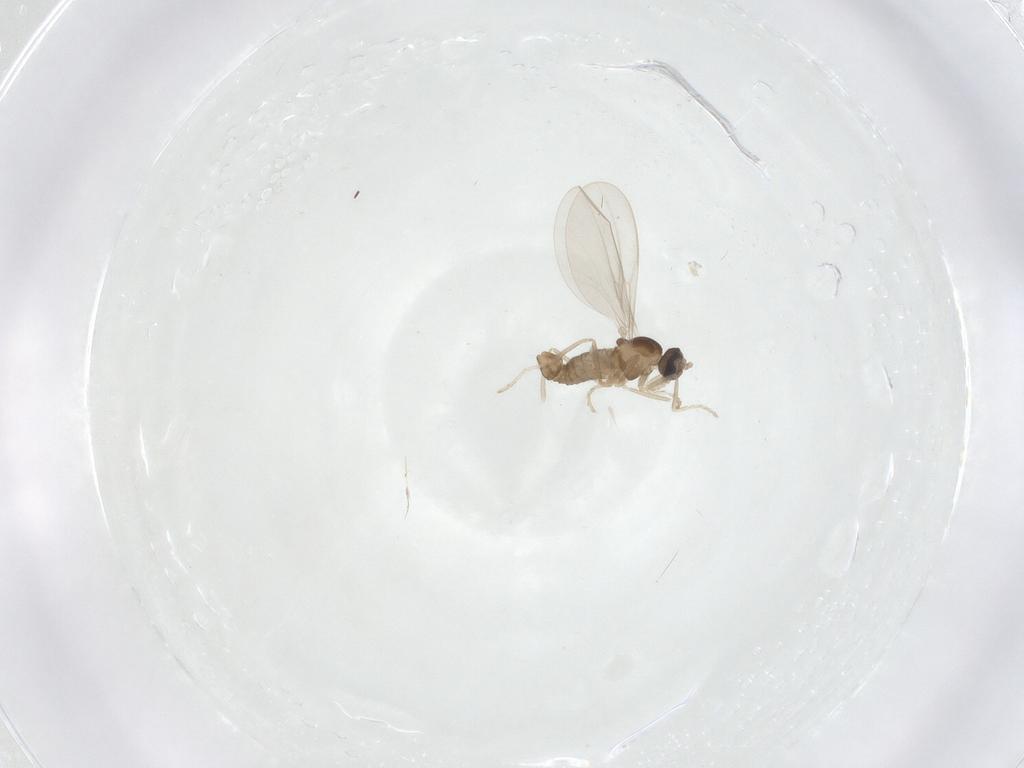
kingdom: Animalia
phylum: Arthropoda
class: Insecta
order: Diptera
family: Cecidomyiidae
